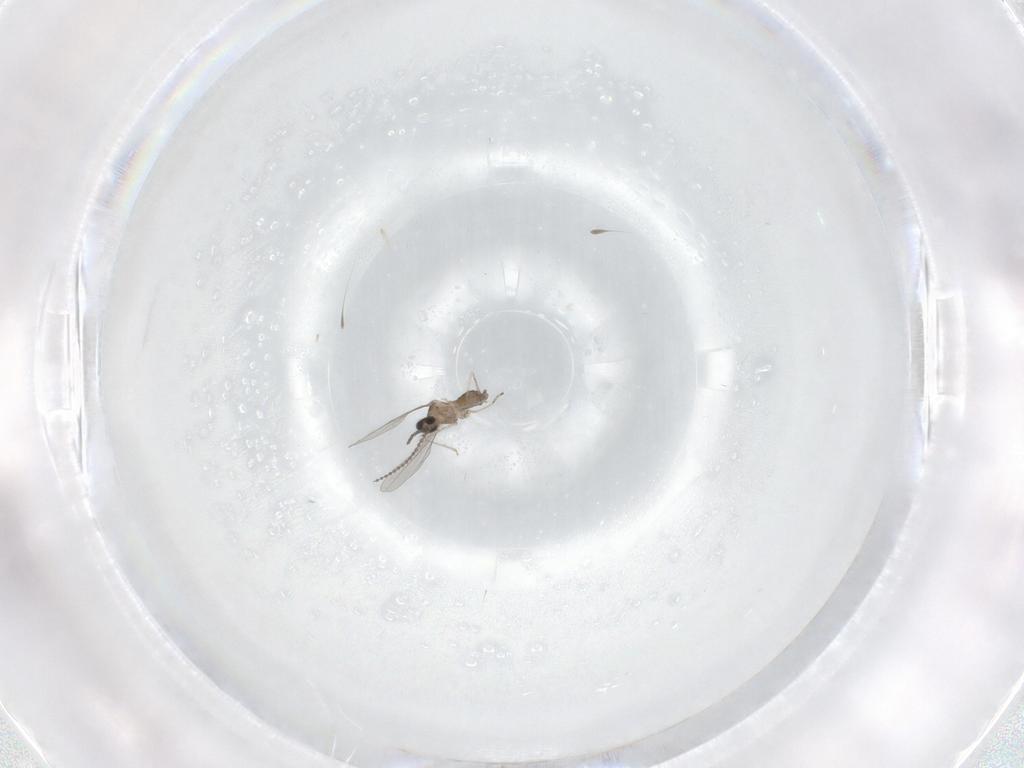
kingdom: Animalia
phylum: Arthropoda
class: Insecta
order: Diptera
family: Cecidomyiidae
